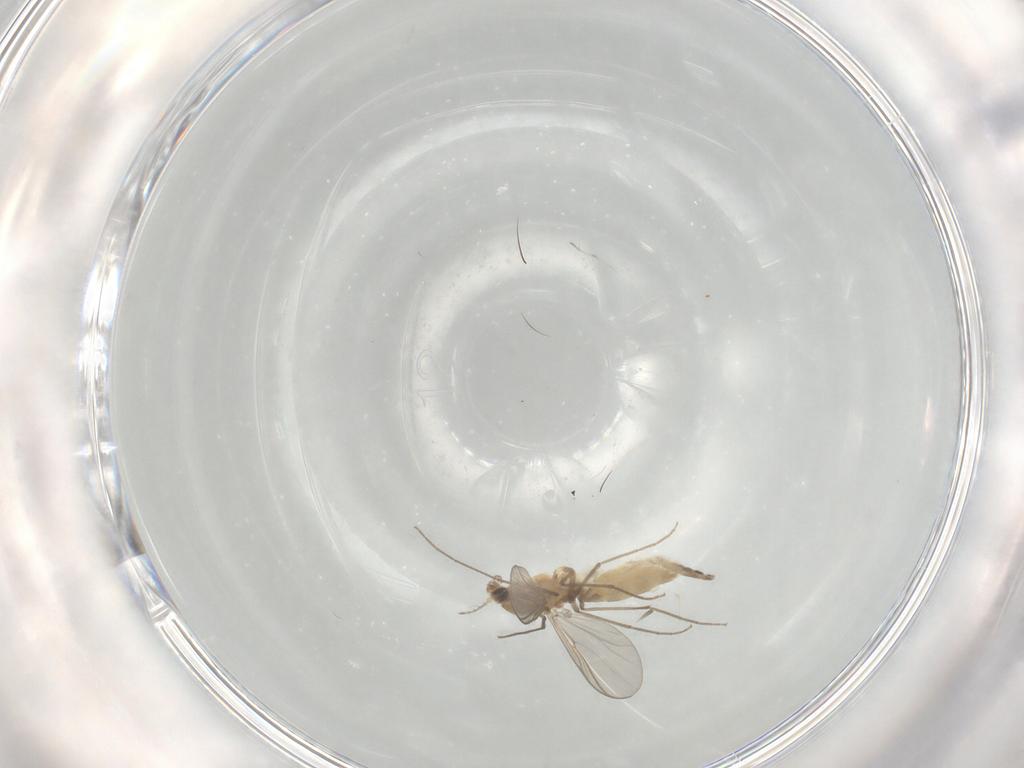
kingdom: Animalia
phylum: Arthropoda
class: Insecta
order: Diptera
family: Chironomidae
